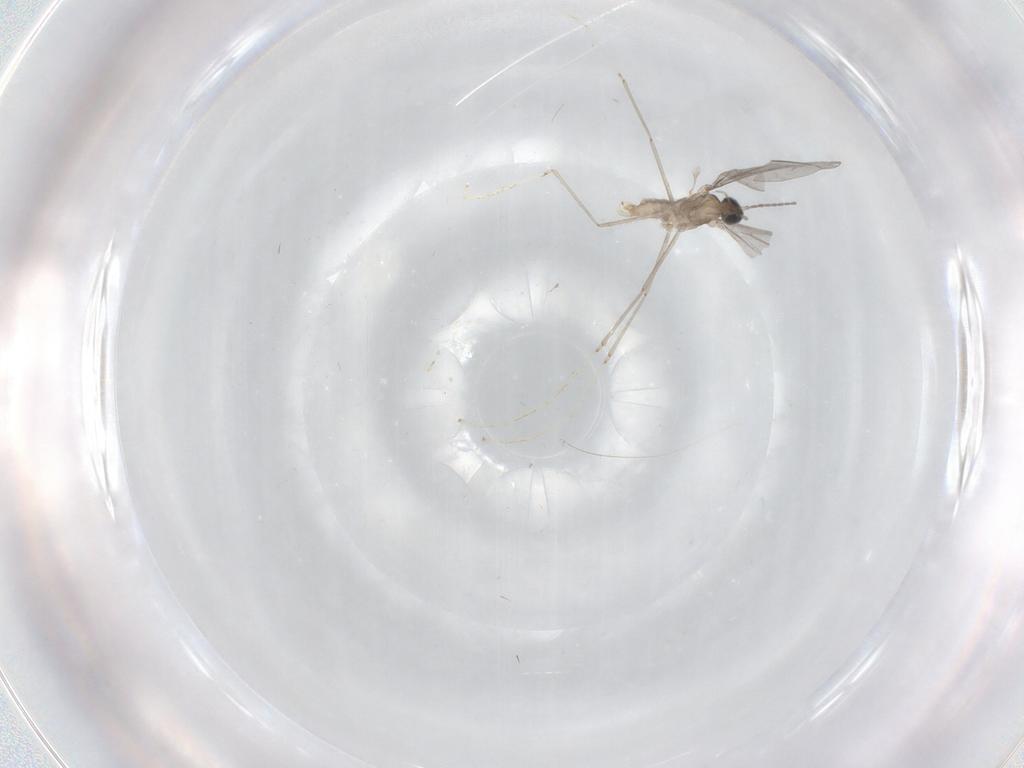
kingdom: Animalia
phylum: Arthropoda
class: Insecta
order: Diptera
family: Cecidomyiidae
